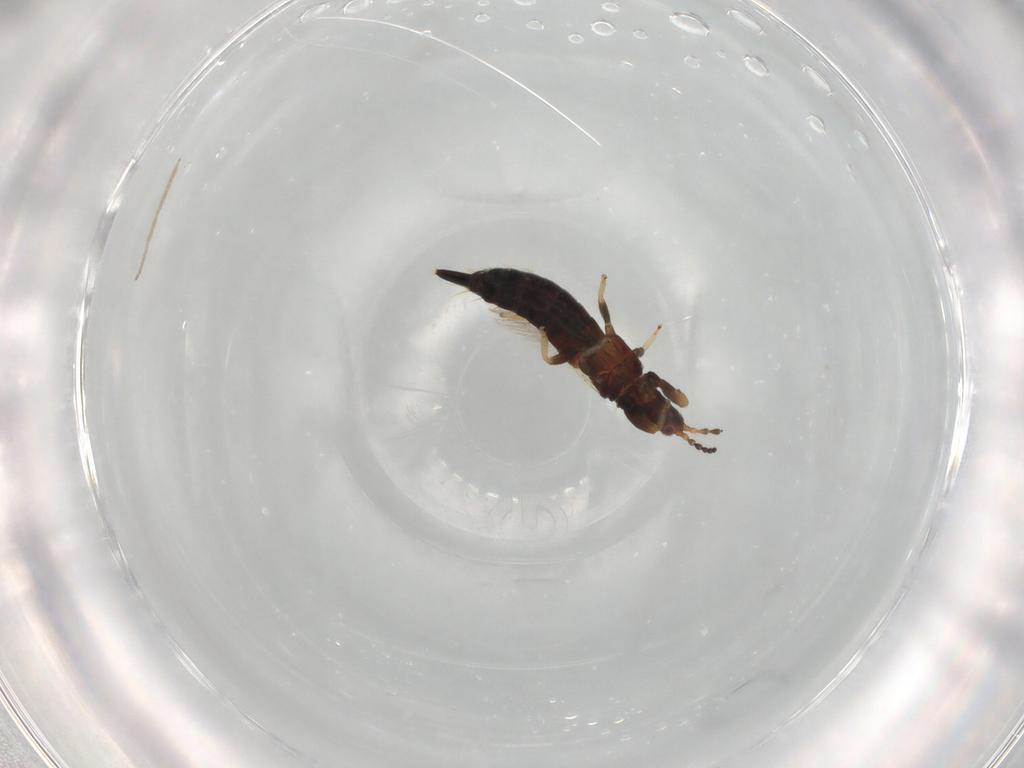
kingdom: Animalia
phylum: Arthropoda
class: Insecta
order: Thysanoptera
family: Phlaeothripidae
